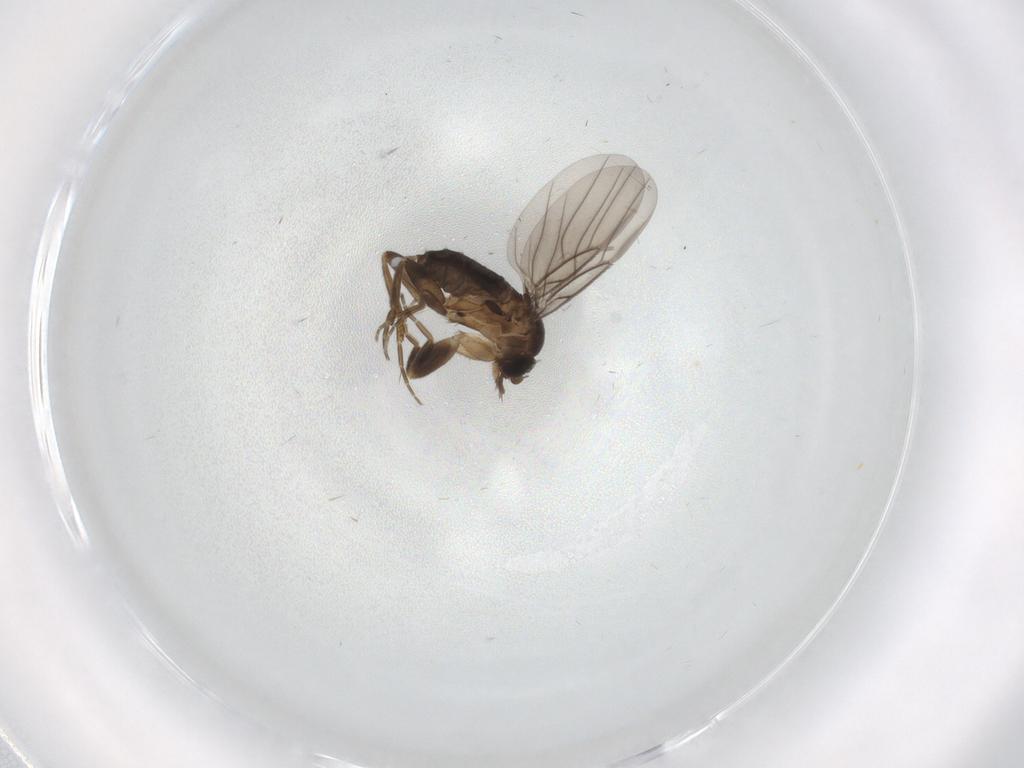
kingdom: Animalia
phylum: Arthropoda
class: Insecta
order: Diptera
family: Phoridae
